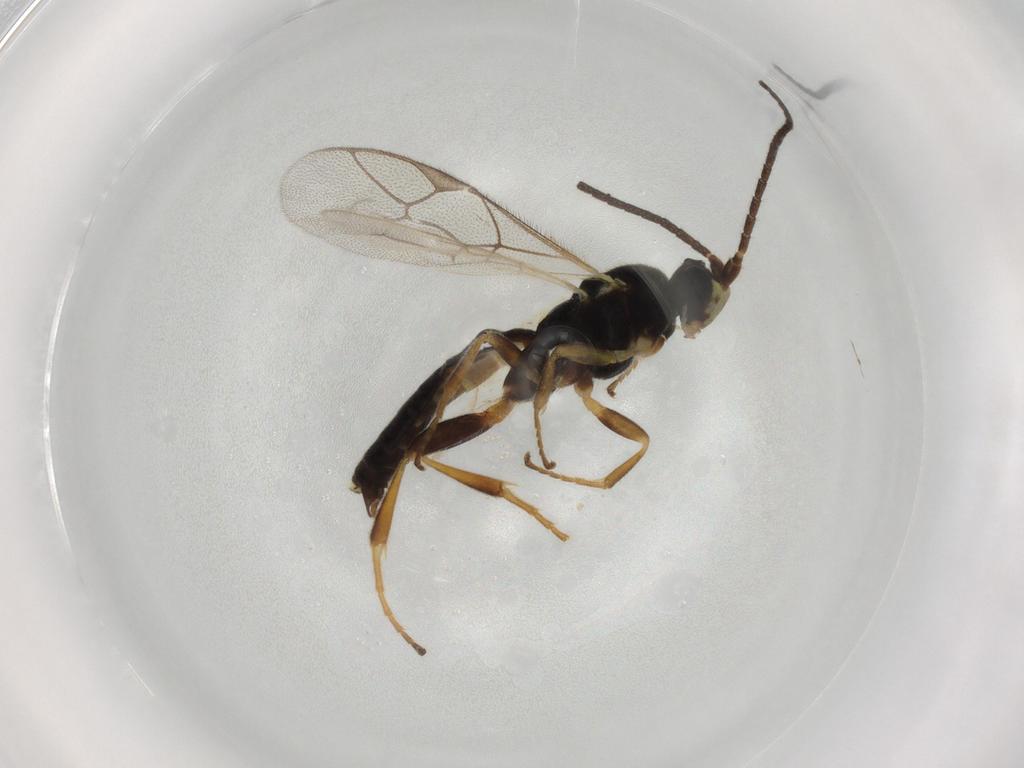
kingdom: Animalia
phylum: Arthropoda
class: Insecta
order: Hymenoptera
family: Ichneumonidae
